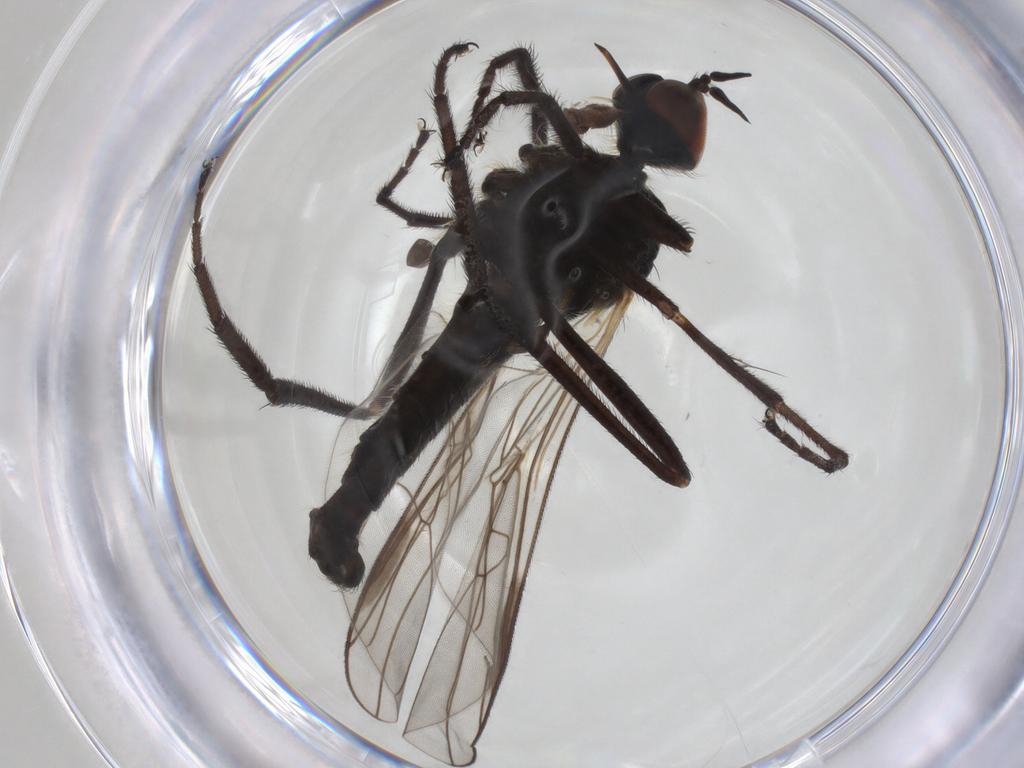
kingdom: Animalia
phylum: Arthropoda
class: Insecta
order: Diptera
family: Empididae
